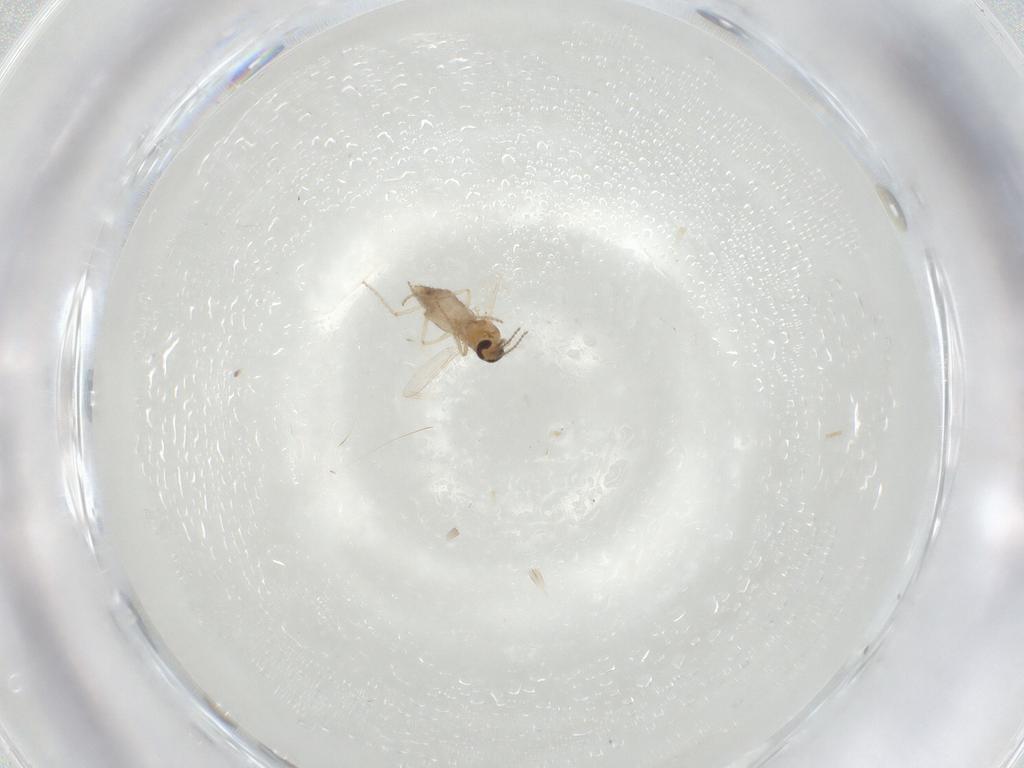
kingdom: Animalia
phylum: Arthropoda
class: Insecta
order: Diptera
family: Ceratopogonidae
